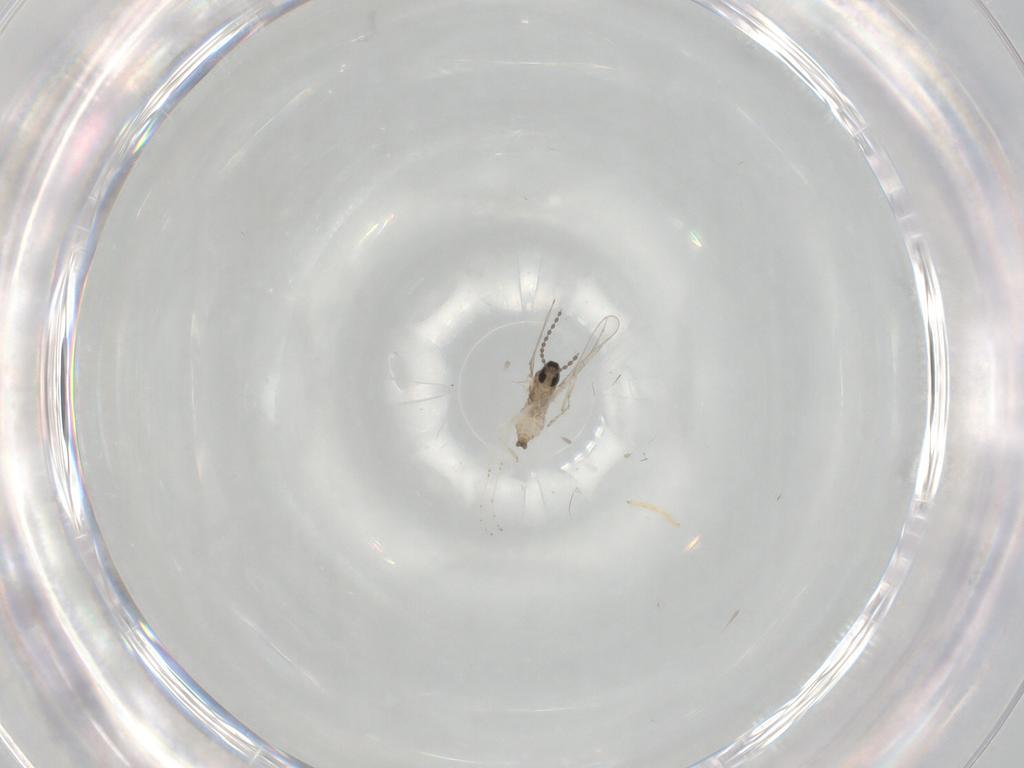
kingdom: Animalia
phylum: Arthropoda
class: Insecta
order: Diptera
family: Cecidomyiidae
